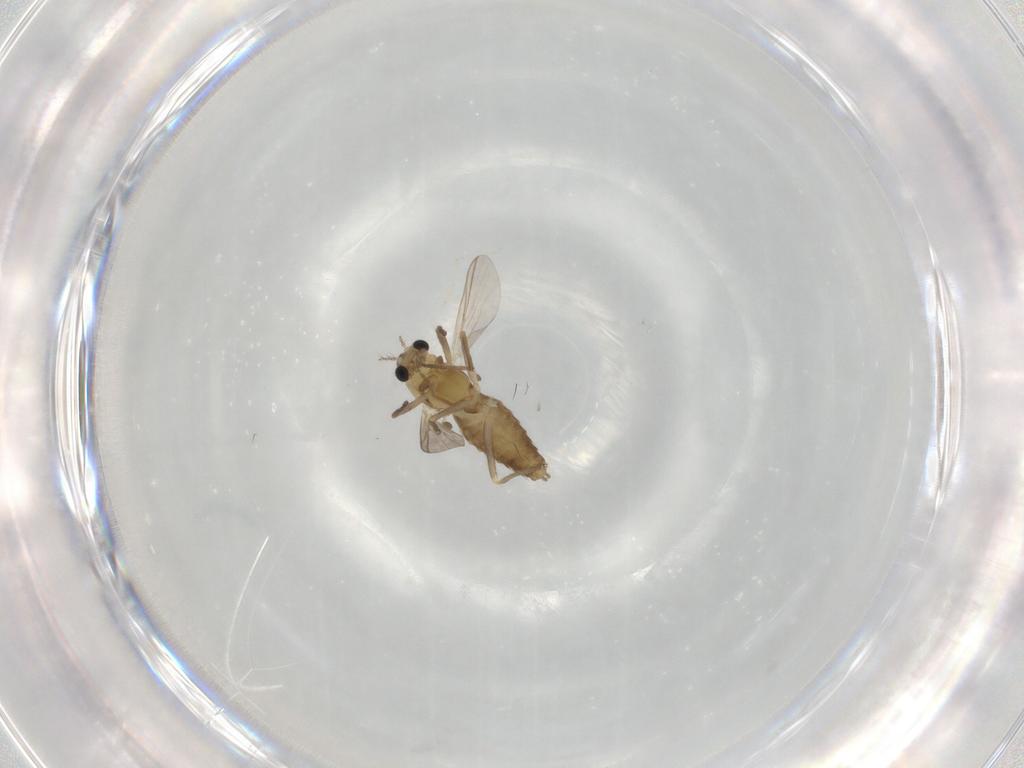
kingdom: Animalia
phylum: Arthropoda
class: Insecta
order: Diptera
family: Chironomidae
